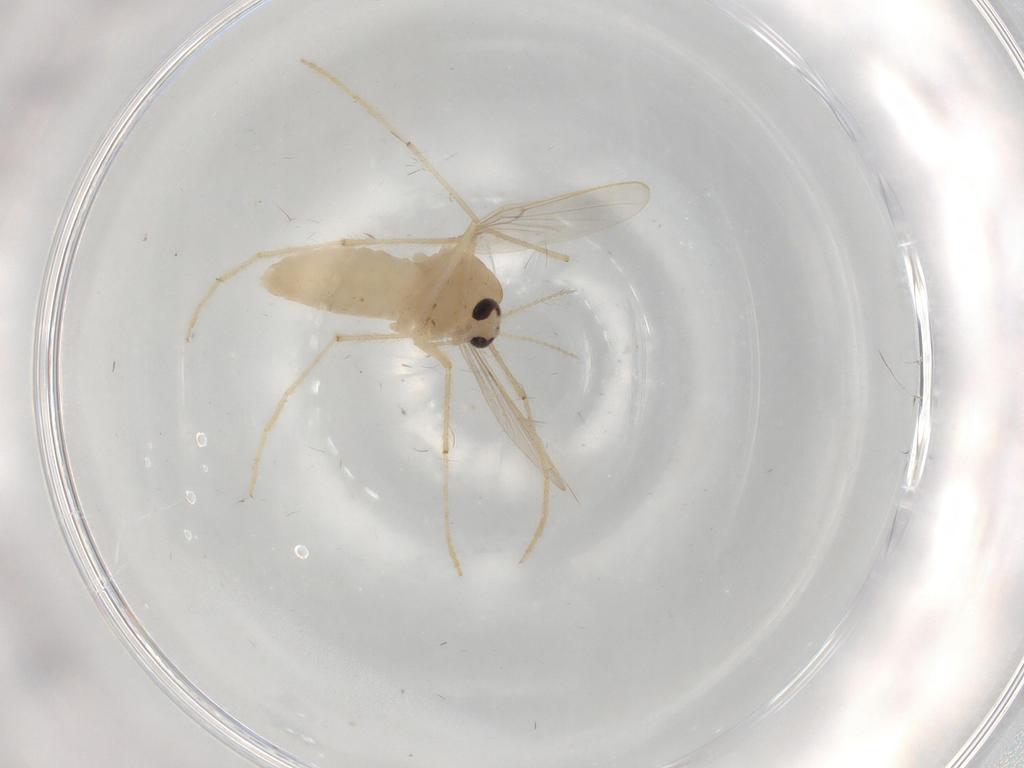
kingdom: Animalia
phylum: Arthropoda
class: Insecta
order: Diptera
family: Chironomidae
